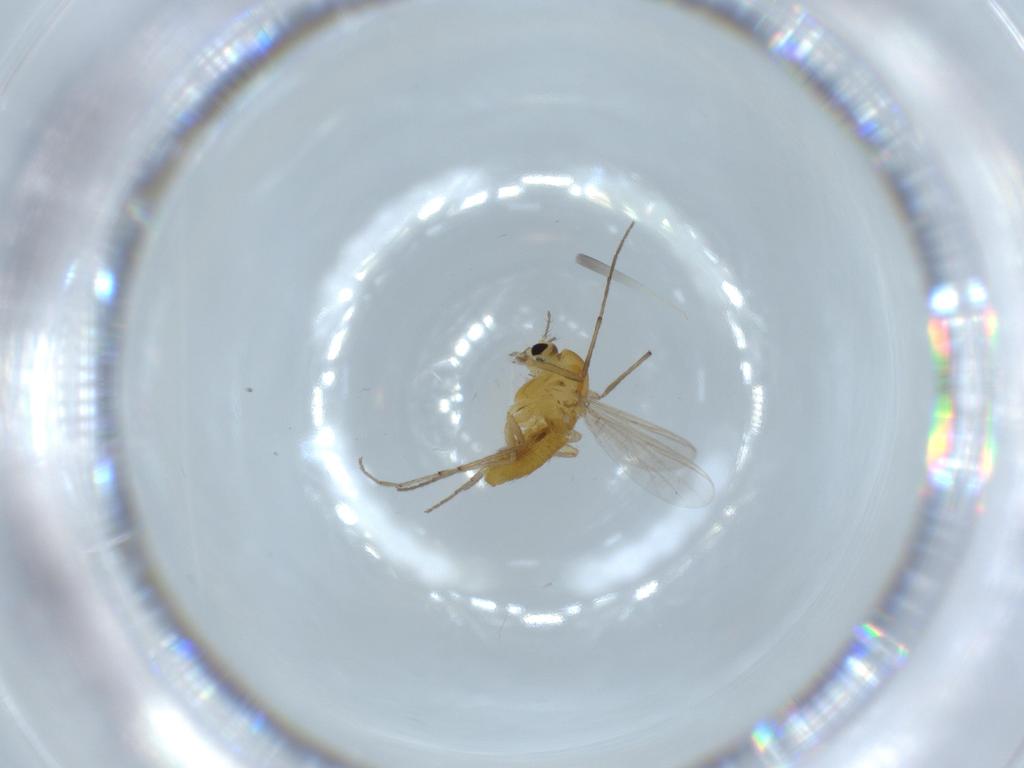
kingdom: Animalia
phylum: Arthropoda
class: Insecta
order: Diptera
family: Chironomidae
